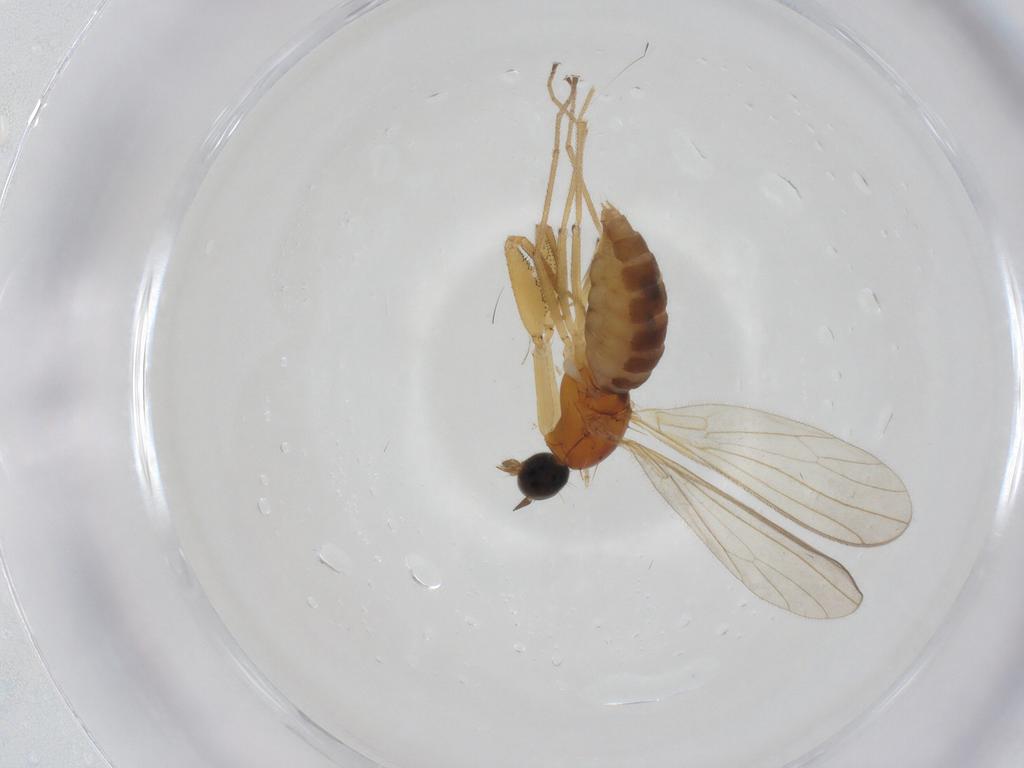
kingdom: Animalia
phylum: Arthropoda
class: Insecta
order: Diptera
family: Empididae
